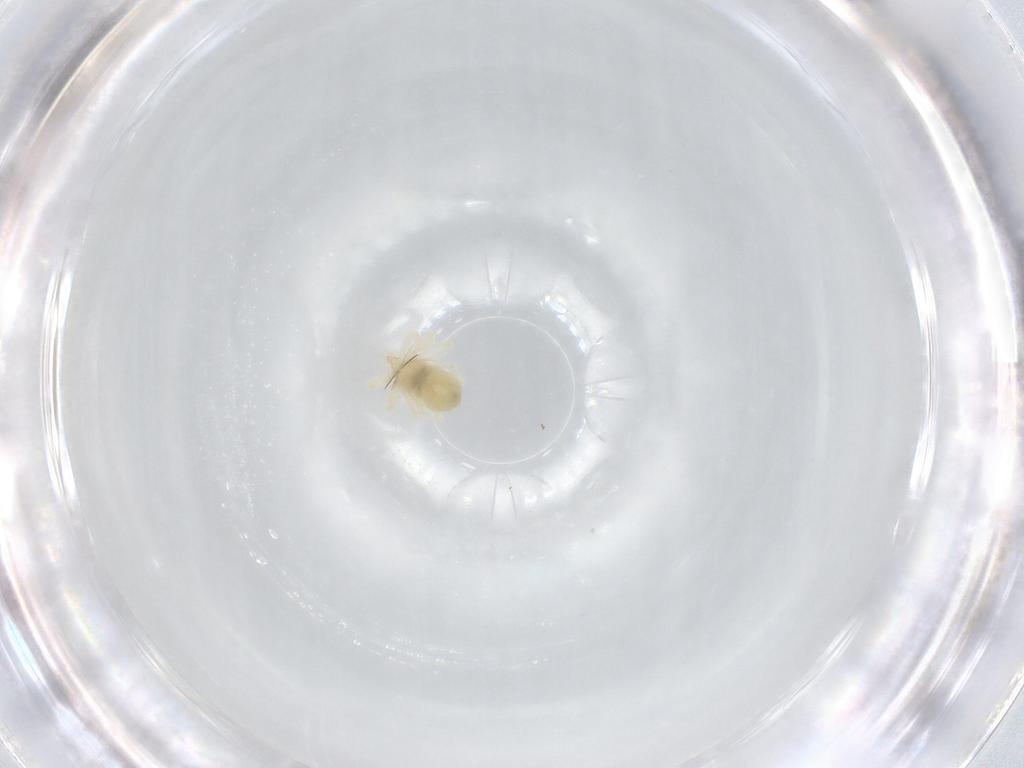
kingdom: Animalia
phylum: Arthropoda
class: Arachnida
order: Trombidiformes
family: Anystidae
